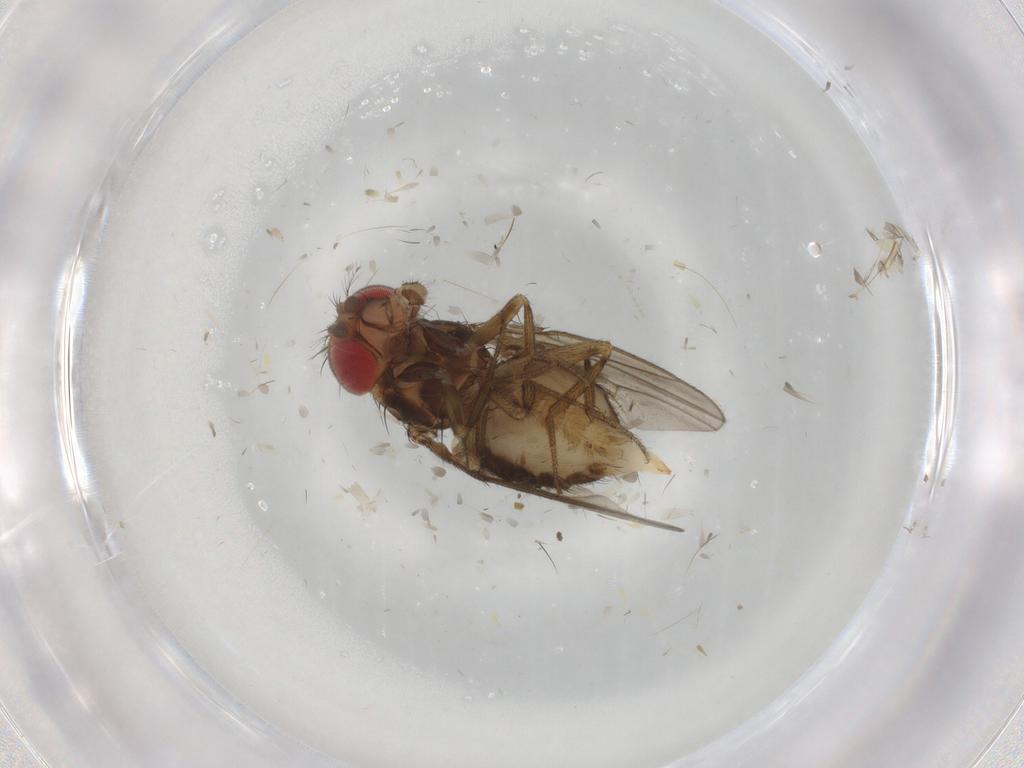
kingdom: Animalia
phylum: Arthropoda
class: Insecta
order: Diptera
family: Drosophilidae
